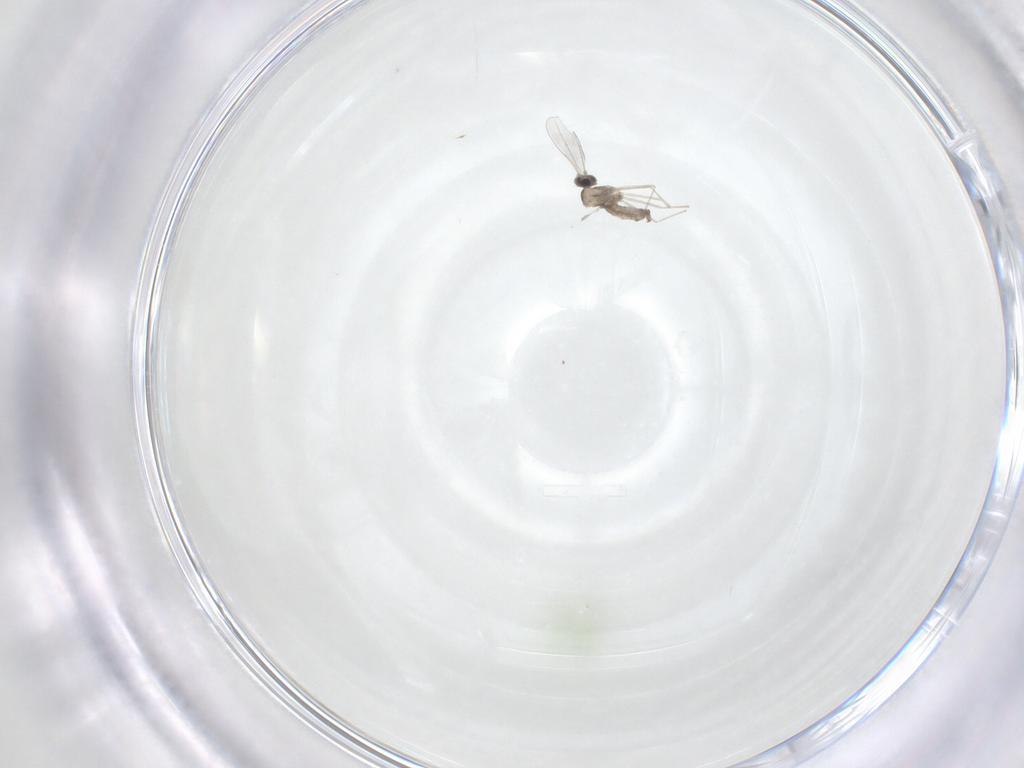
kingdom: Animalia
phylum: Arthropoda
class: Insecta
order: Diptera
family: Cecidomyiidae
